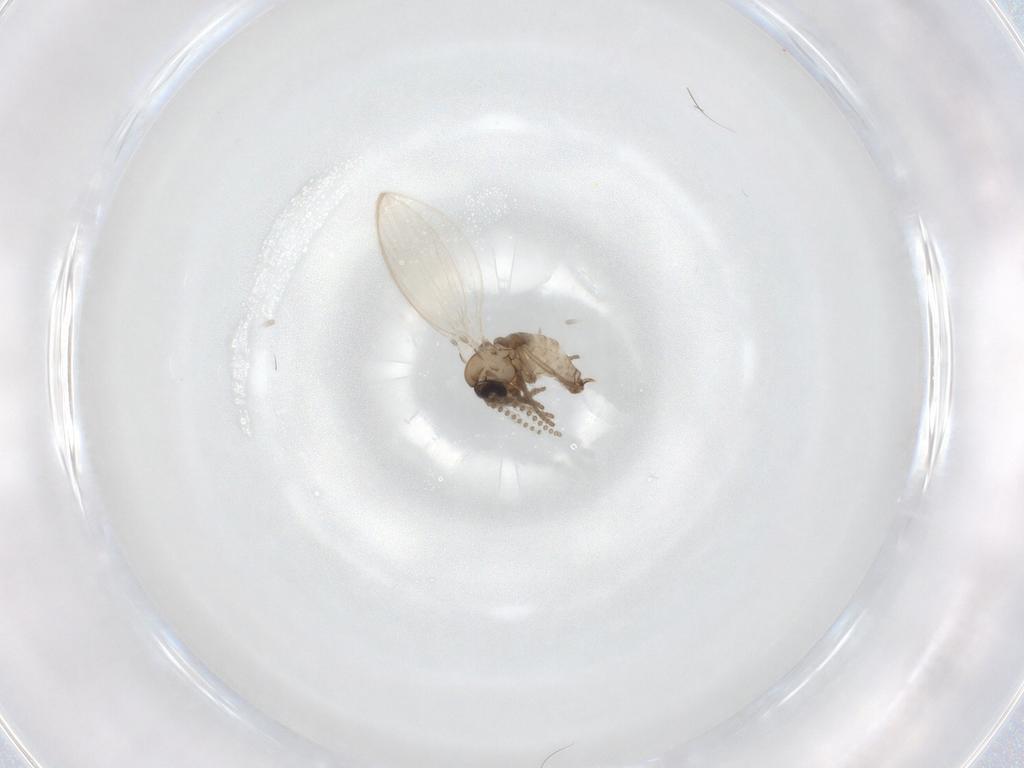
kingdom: Animalia
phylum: Arthropoda
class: Insecta
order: Diptera
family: Psychodidae
